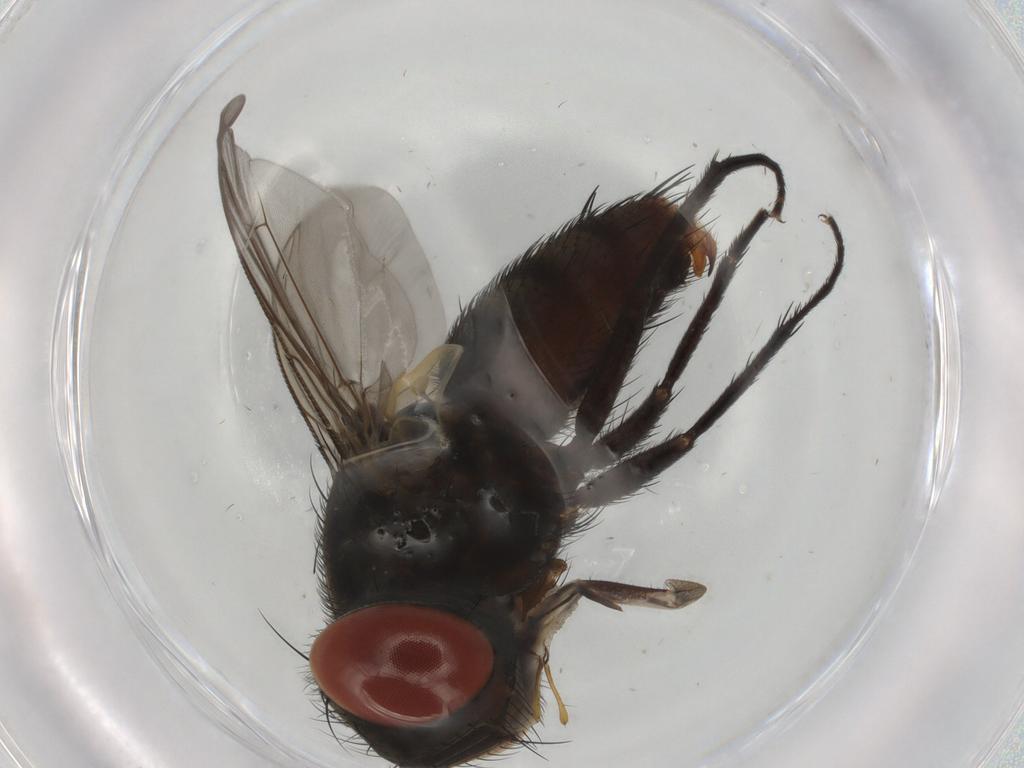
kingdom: Animalia
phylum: Arthropoda
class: Insecta
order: Diptera
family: Sarcophagidae
